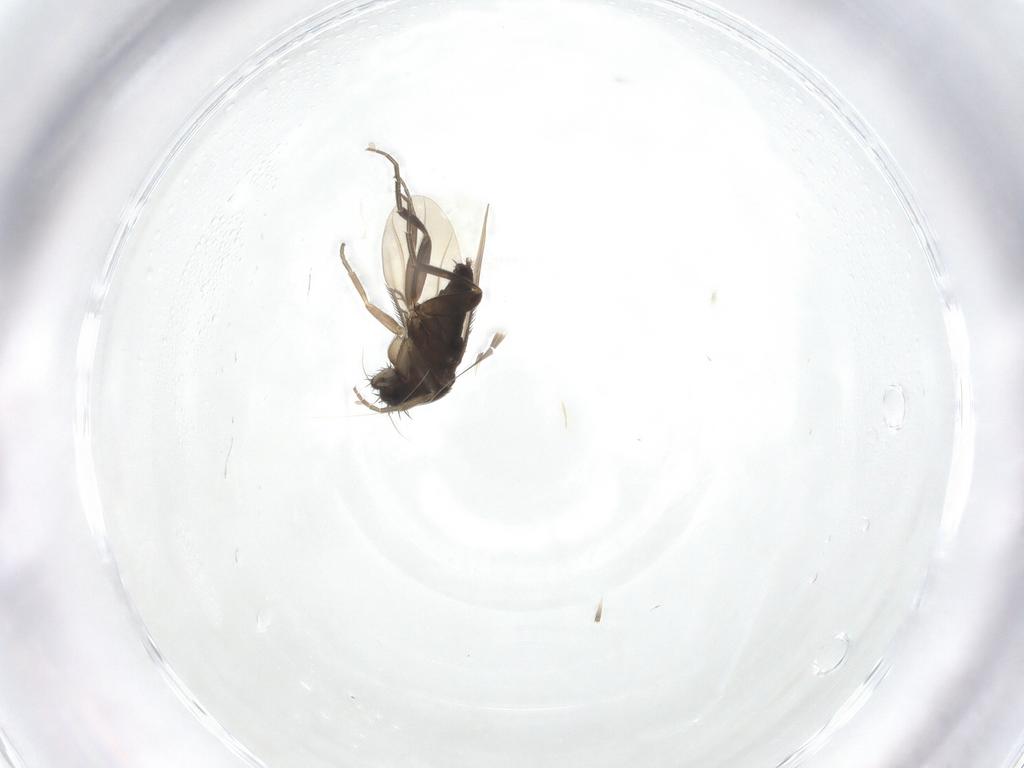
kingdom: Animalia
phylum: Arthropoda
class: Insecta
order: Diptera
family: Phoridae
